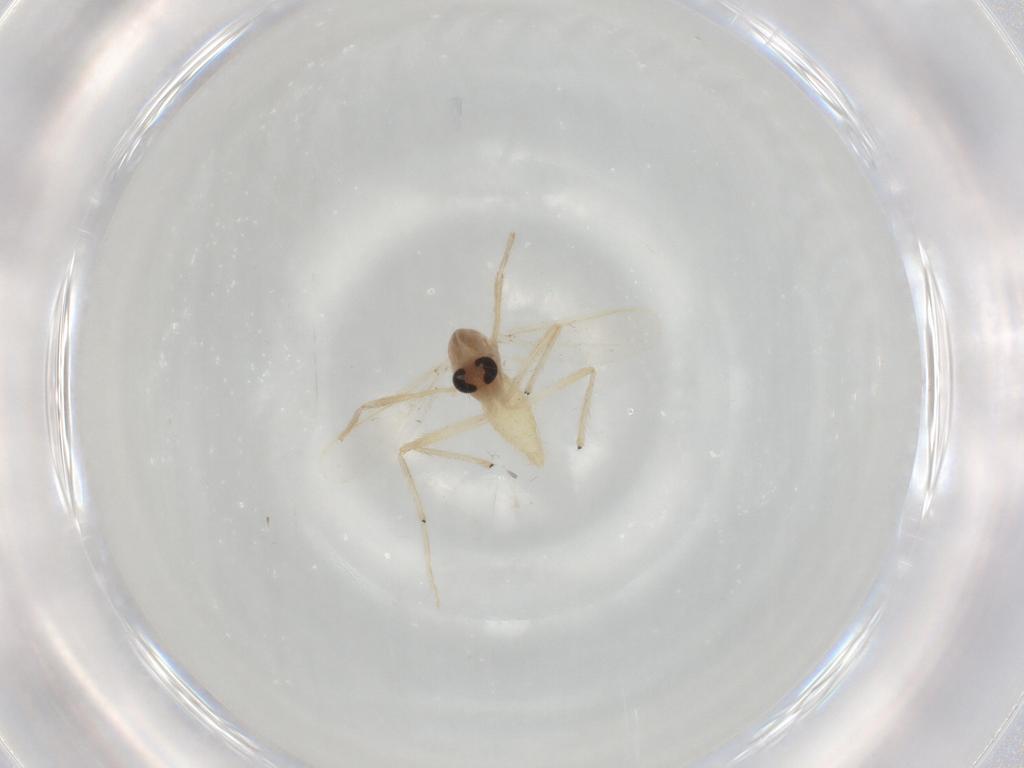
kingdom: Animalia
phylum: Arthropoda
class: Insecta
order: Diptera
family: Chironomidae
